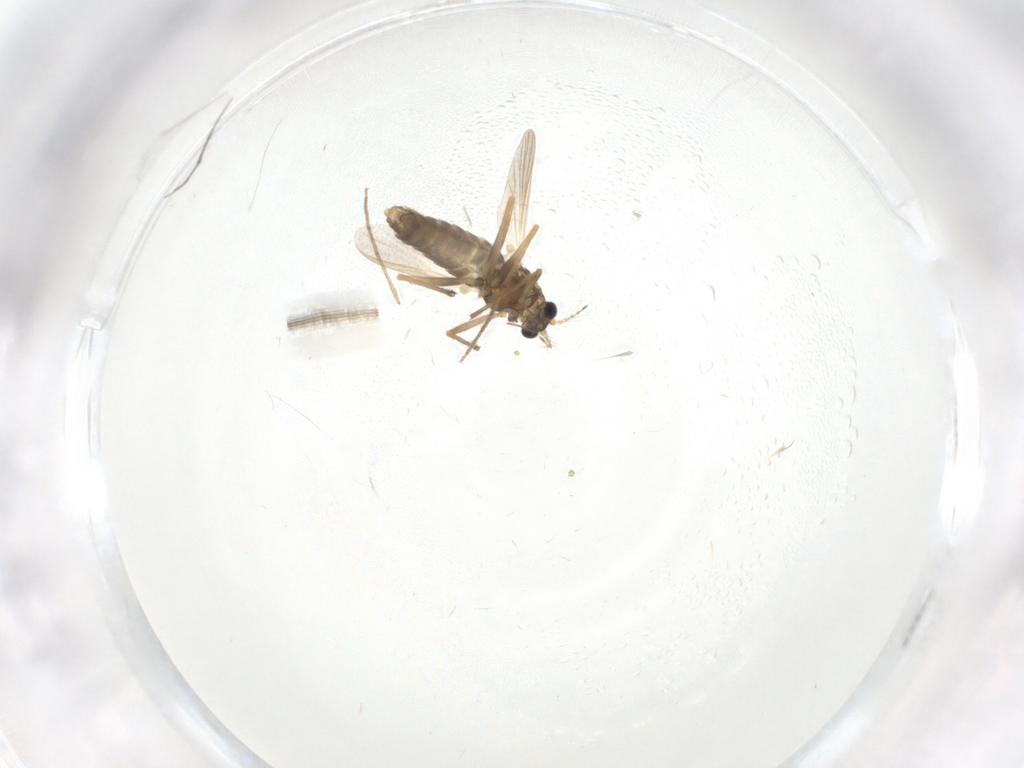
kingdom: Animalia
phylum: Arthropoda
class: Insecta
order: Diptera
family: Chironomidae
